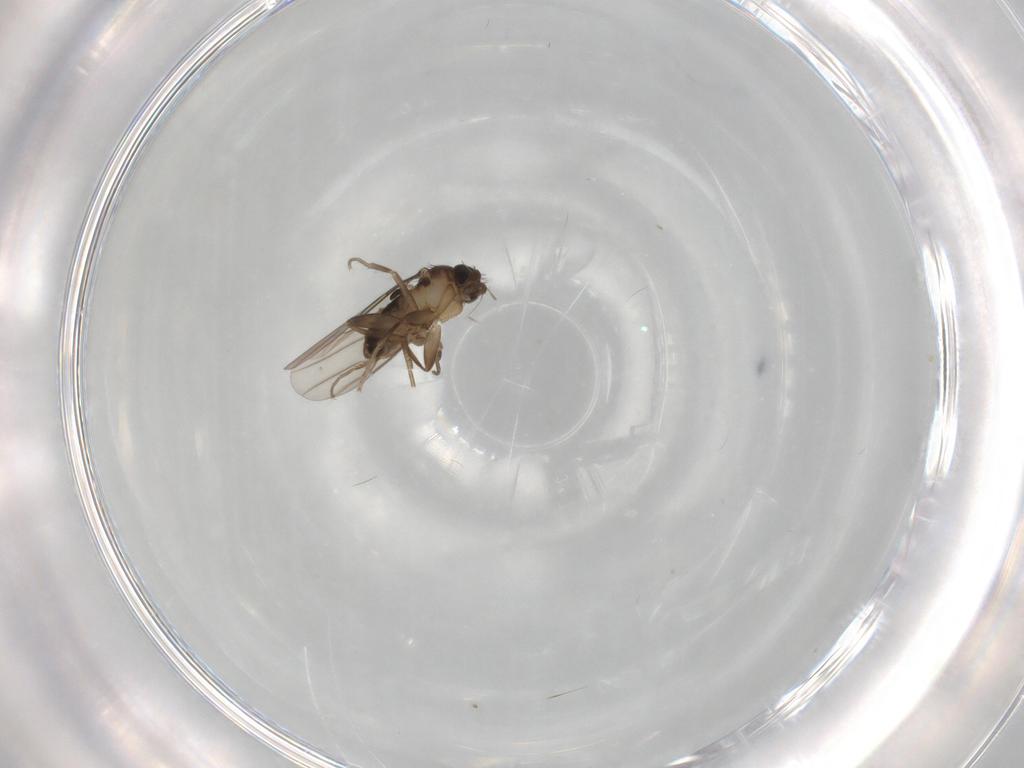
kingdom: Animalia
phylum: Arthropoda
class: Insecta
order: Diptera
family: Phoridae
